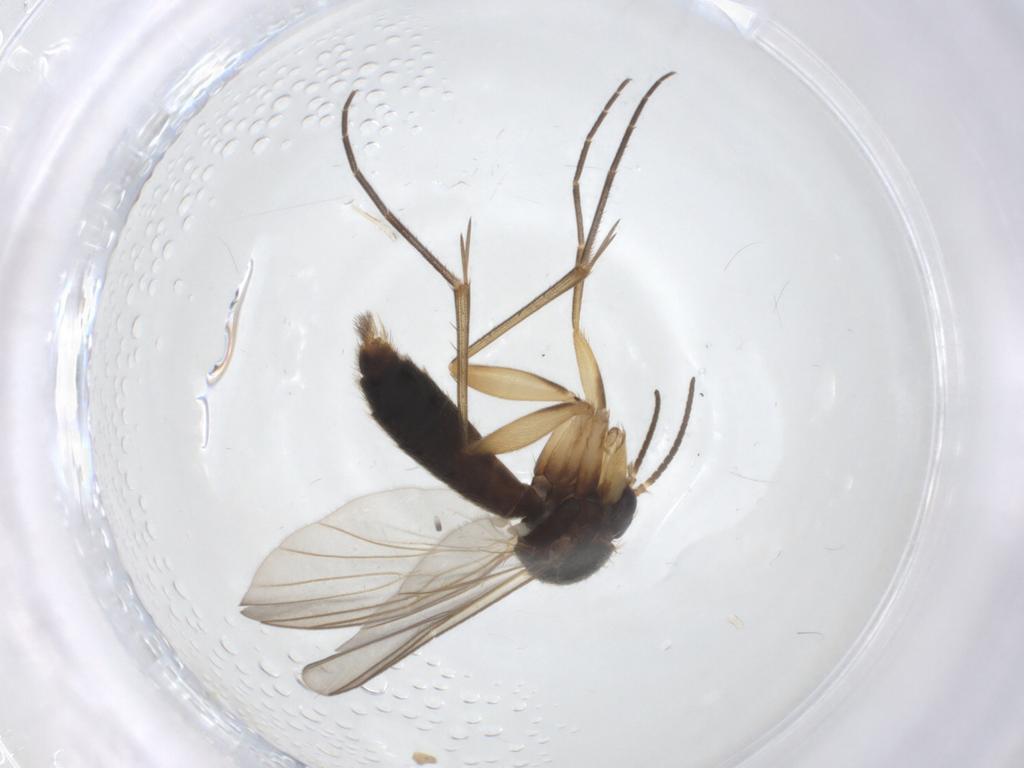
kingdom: Animalia
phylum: Arthropoda
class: Insecta
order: Diptera
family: Mycetophilidae
